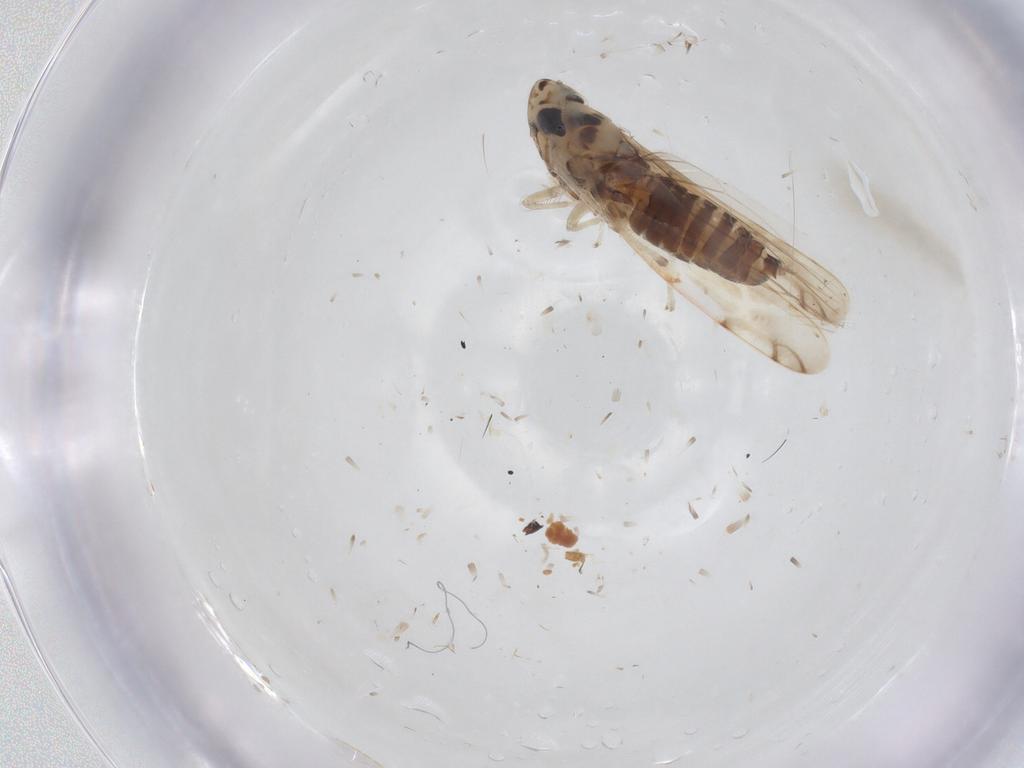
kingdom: Animalia
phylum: Arthropoda
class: Insecta
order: Hemiptera
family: Cicadellidae
